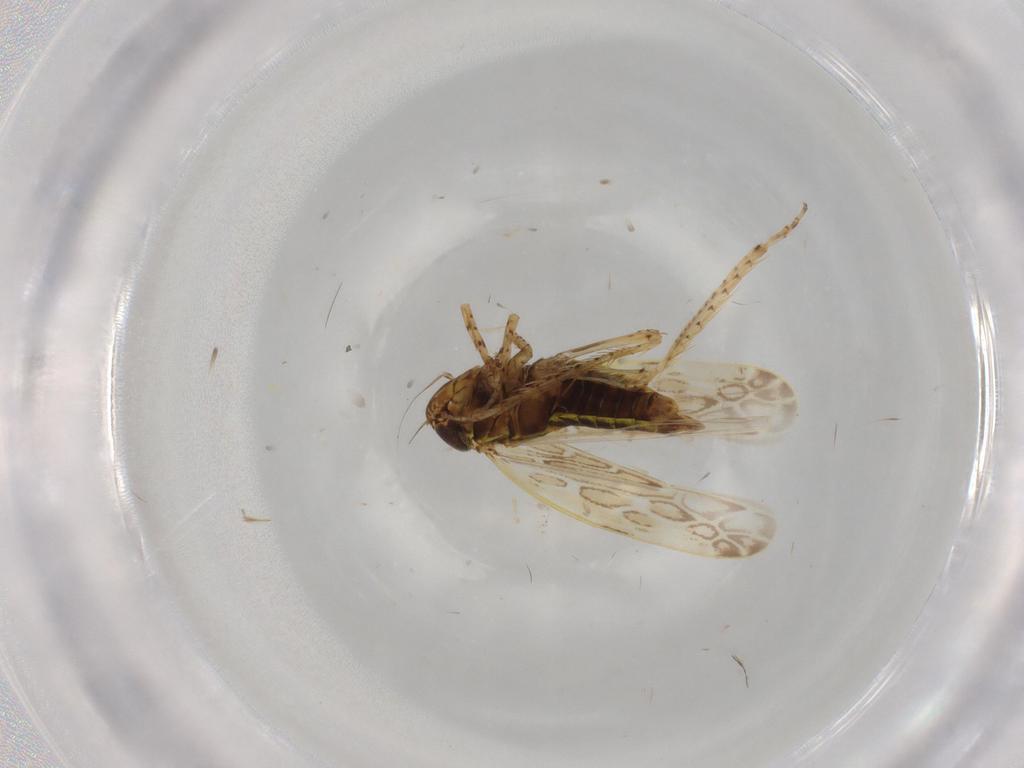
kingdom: Animalia
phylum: Arthropoda
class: Insecta
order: Hemiptera
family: Cicadellidae
